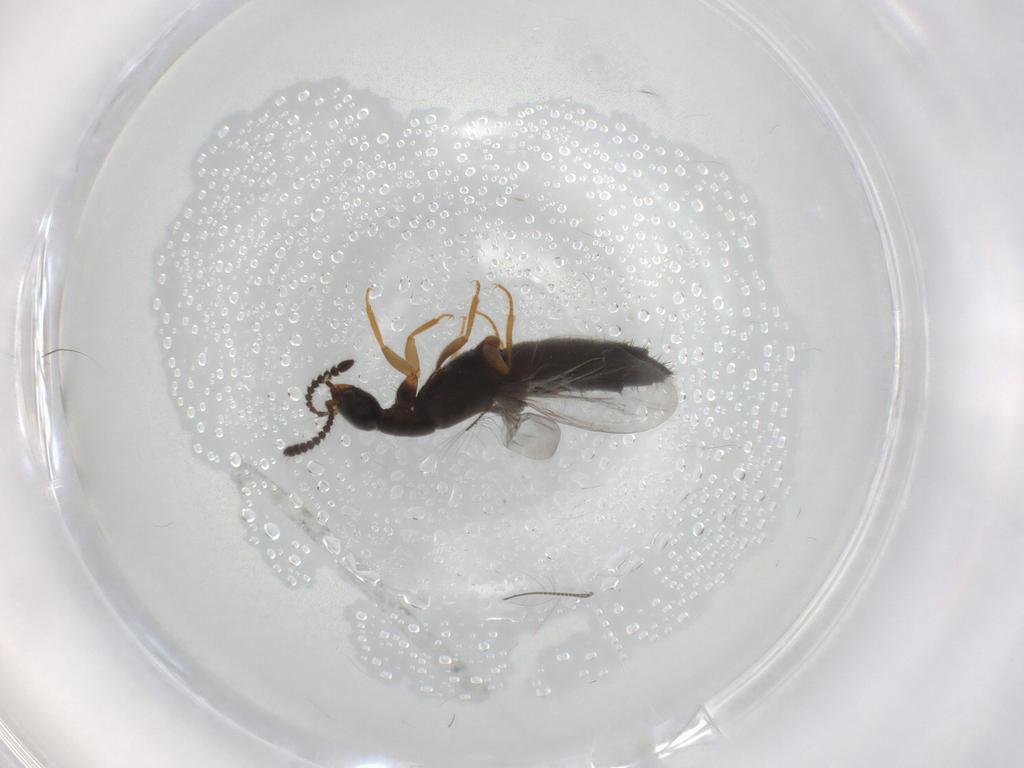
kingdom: Animalia
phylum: Arthropoda
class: Insecta
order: Coleoptera
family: Staphylinidae
